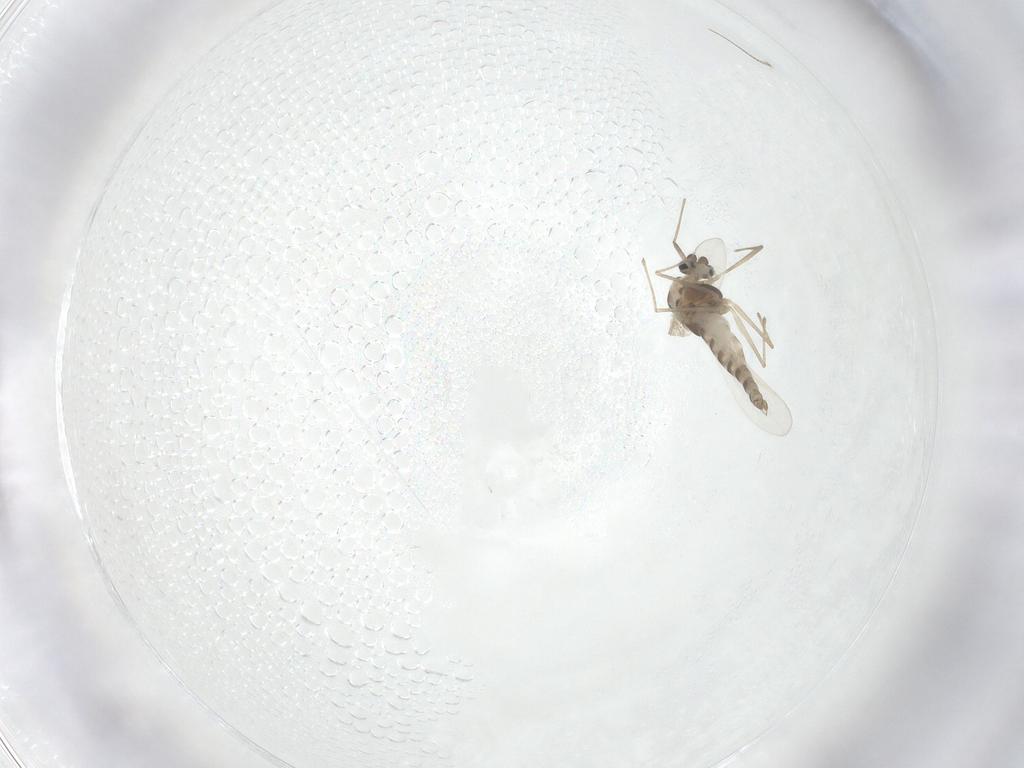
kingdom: Animalia
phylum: Arthropoda
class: Insecta
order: Diptera
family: Chironomidae
